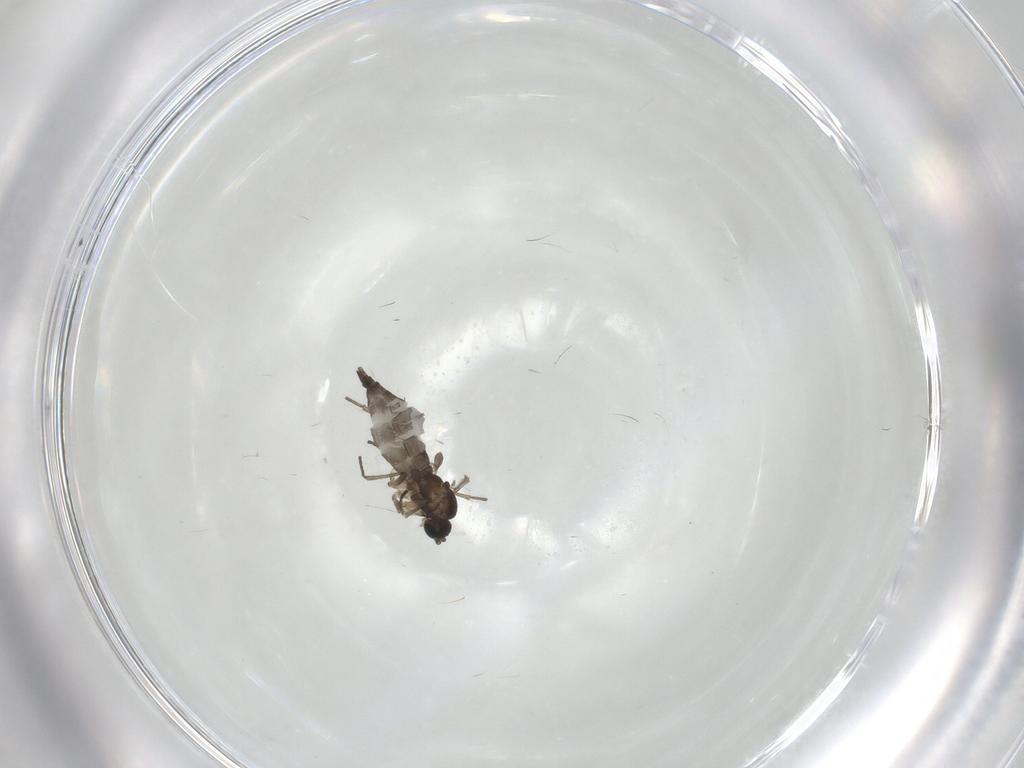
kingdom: Animalia
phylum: Arthropoda
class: Insecta
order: Diptera
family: Sciaridae
